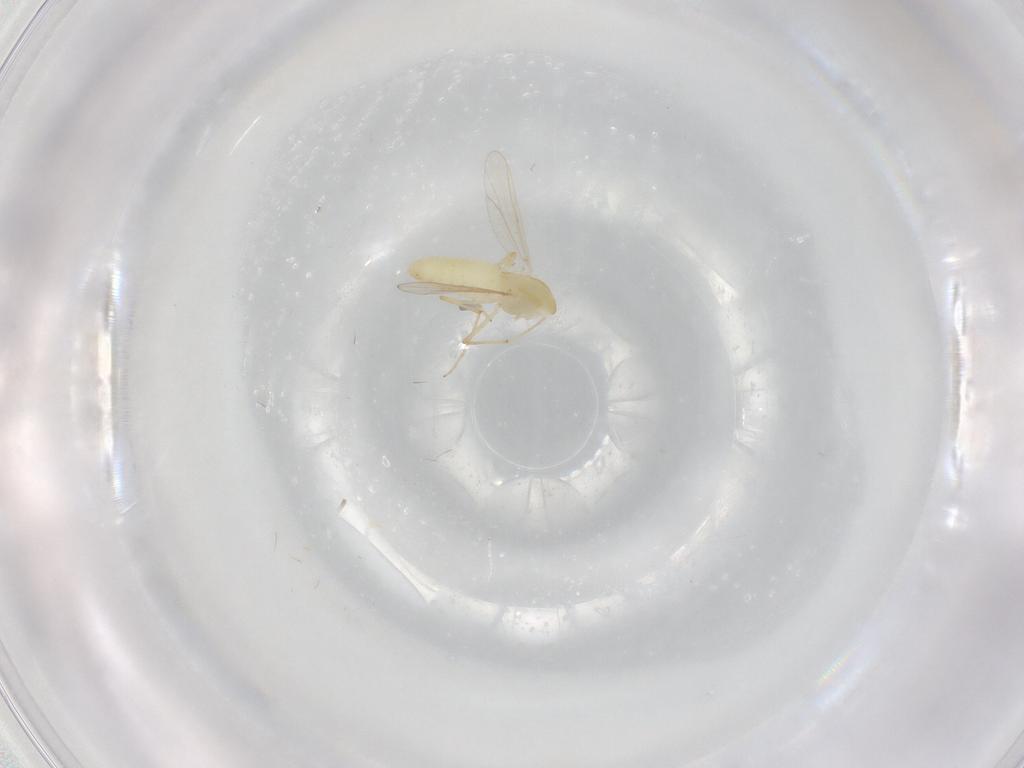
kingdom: Animalia
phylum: Arthropoda
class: Insecta
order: Diptera
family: Chironomidae
